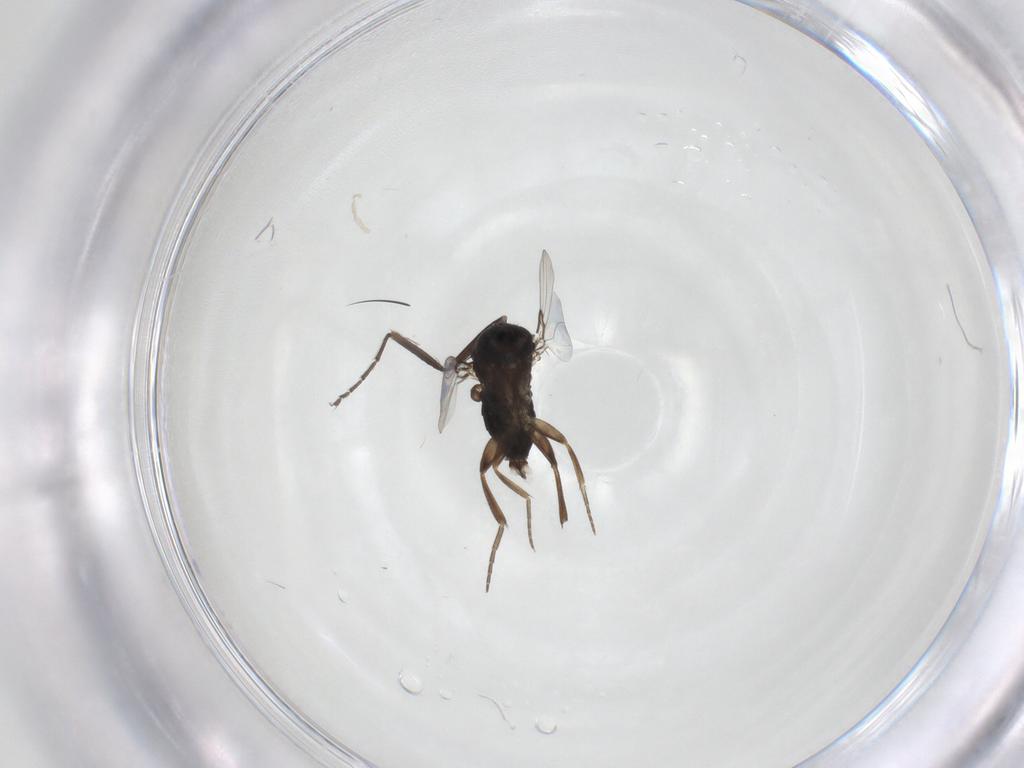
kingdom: Animalia
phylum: Arthropoda
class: Insecta
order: Diptera
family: Phoridae
